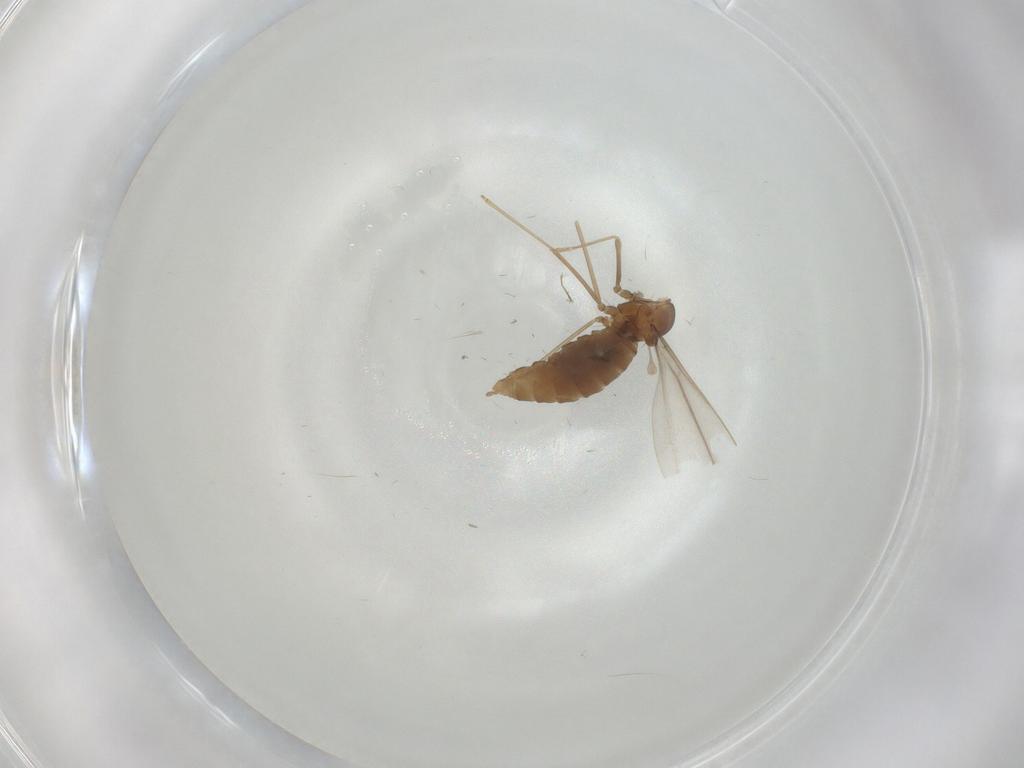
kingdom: Animalia
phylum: Arthropoda
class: Insecta
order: Diptera
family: Cecidomyiidae
